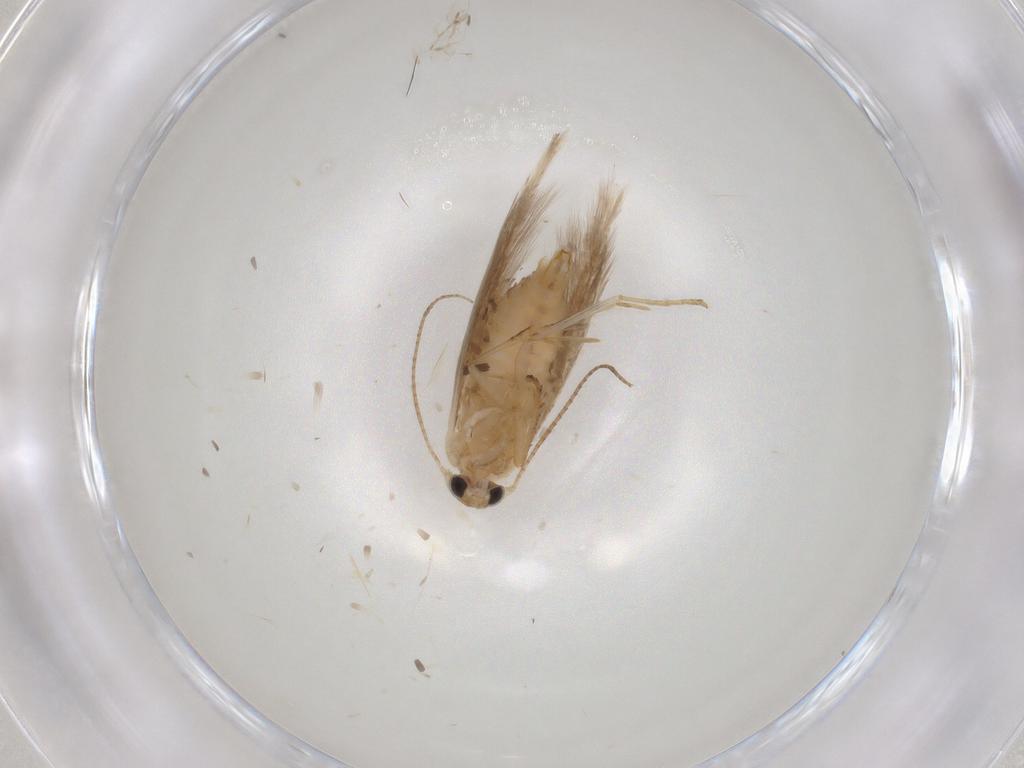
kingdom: Animalia
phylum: Arthropoda
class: Insecta
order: Lepidoptera
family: Bucculatricidae
